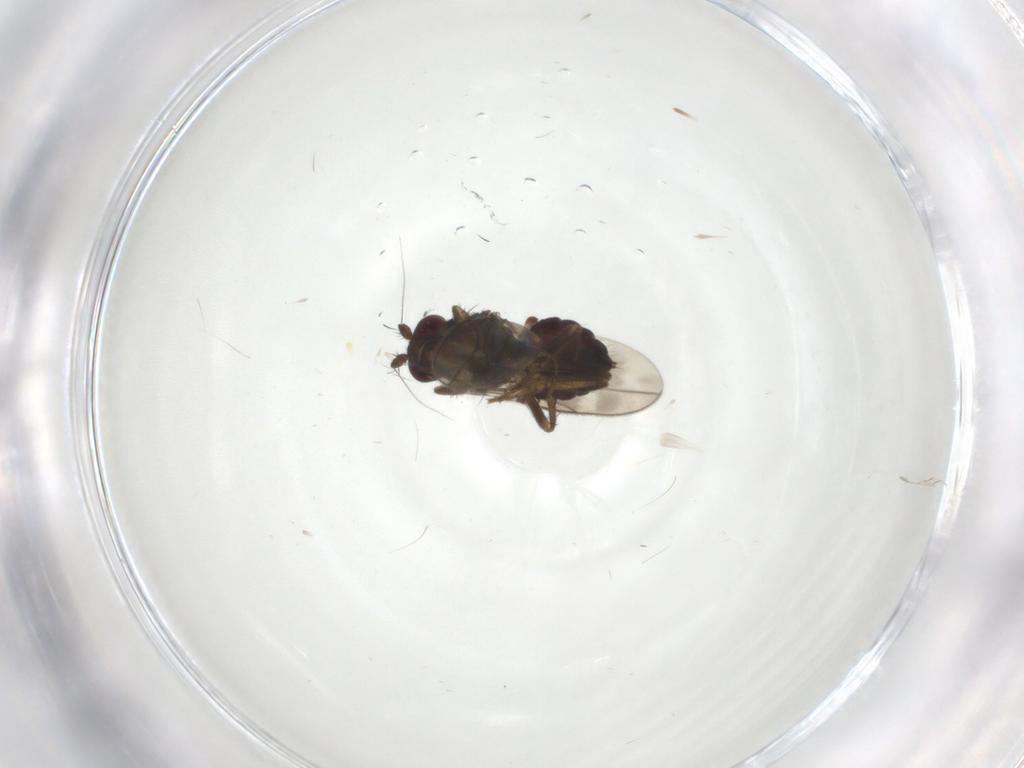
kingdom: Animalia
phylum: Arthropoda
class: Insecta
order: Diptera
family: Sphaeroceridae
